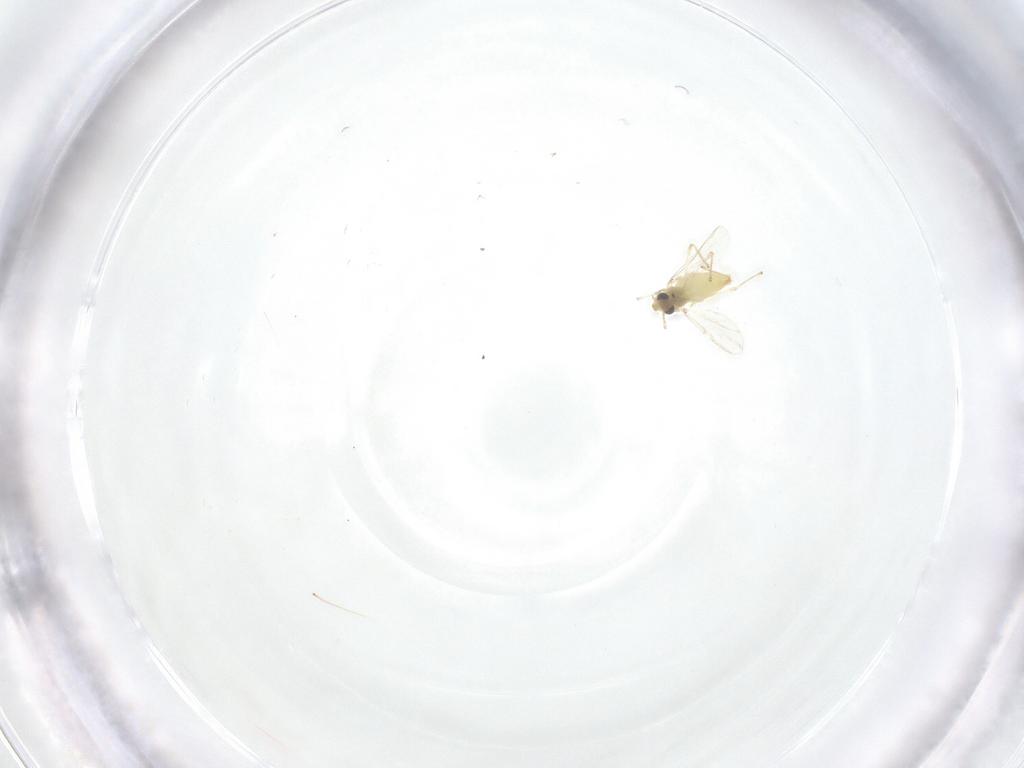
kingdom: Animalia
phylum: Arthropoda
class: Insecta
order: Diptera
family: Chironomidae
